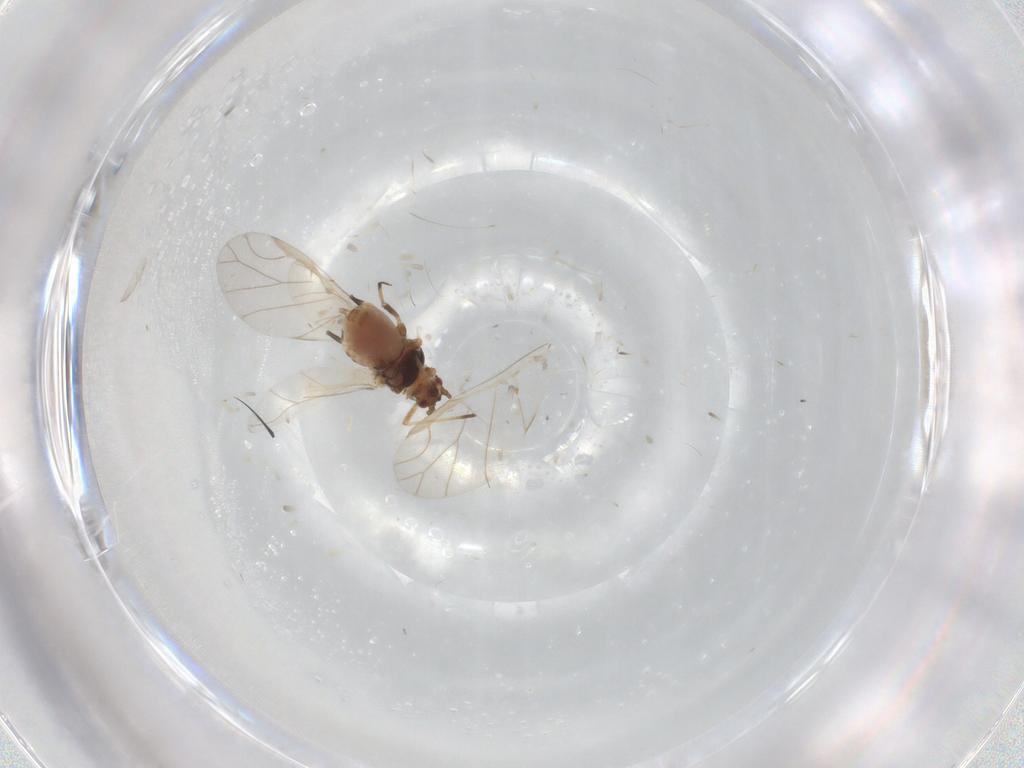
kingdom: Animalia
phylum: Arthropoda
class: Insecta
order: Hemiptera
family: Aphididae
